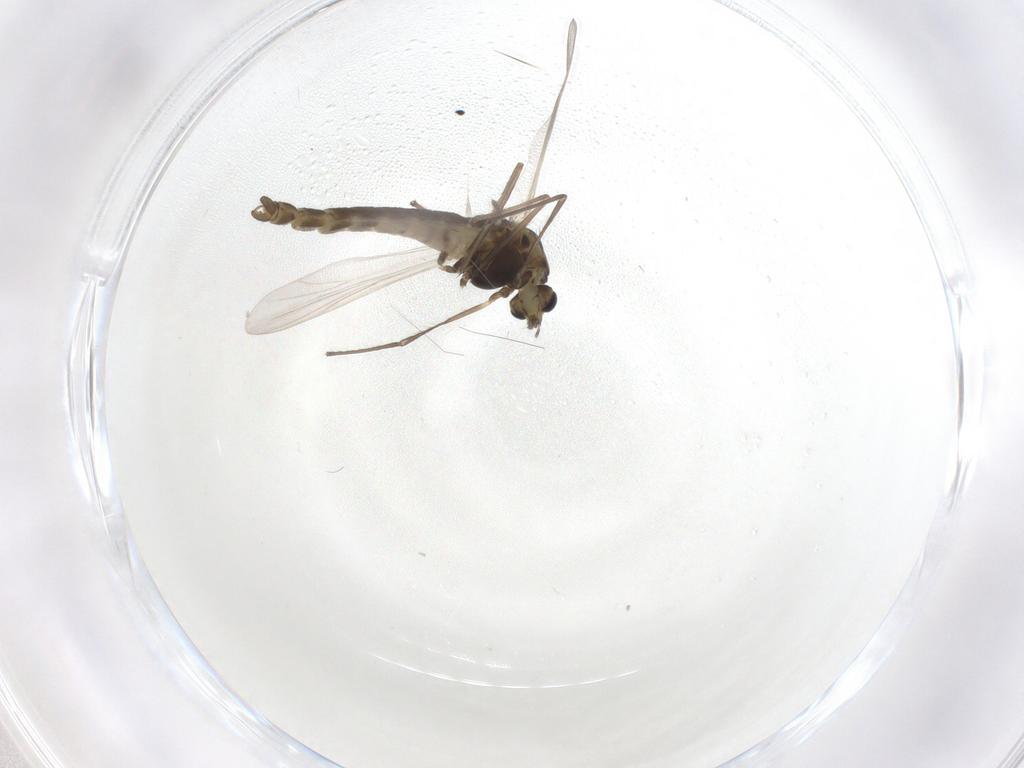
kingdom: Animalia
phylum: Arthropoda
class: Insecta
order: Diptera
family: Chironomidae
